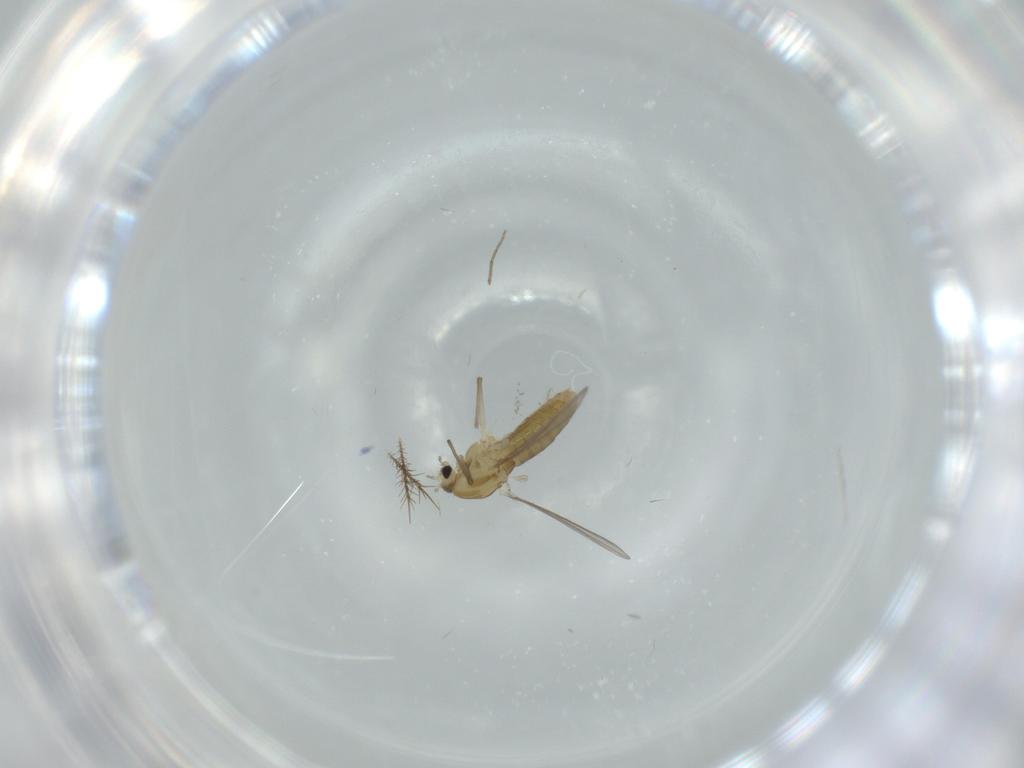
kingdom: Animalia
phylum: Arthropoda
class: Insecta
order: Diptera
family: Chironomidae
